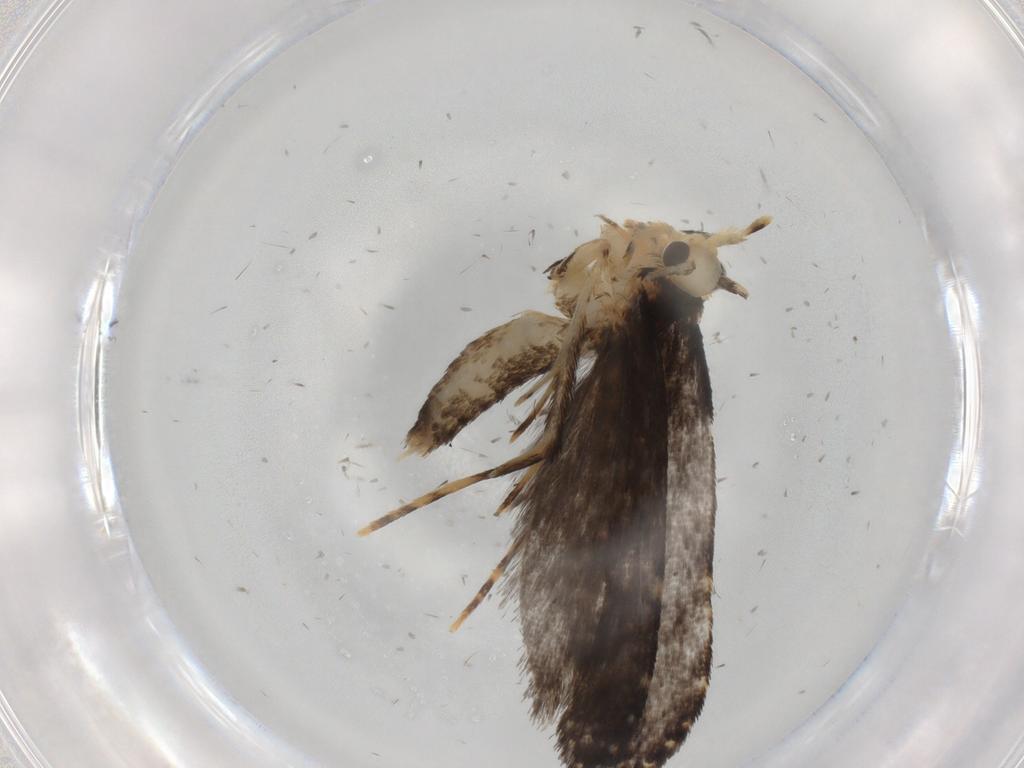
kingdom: Animalia
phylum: Arthropoda
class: Insecta
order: Lepidoptera
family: Tineidae
